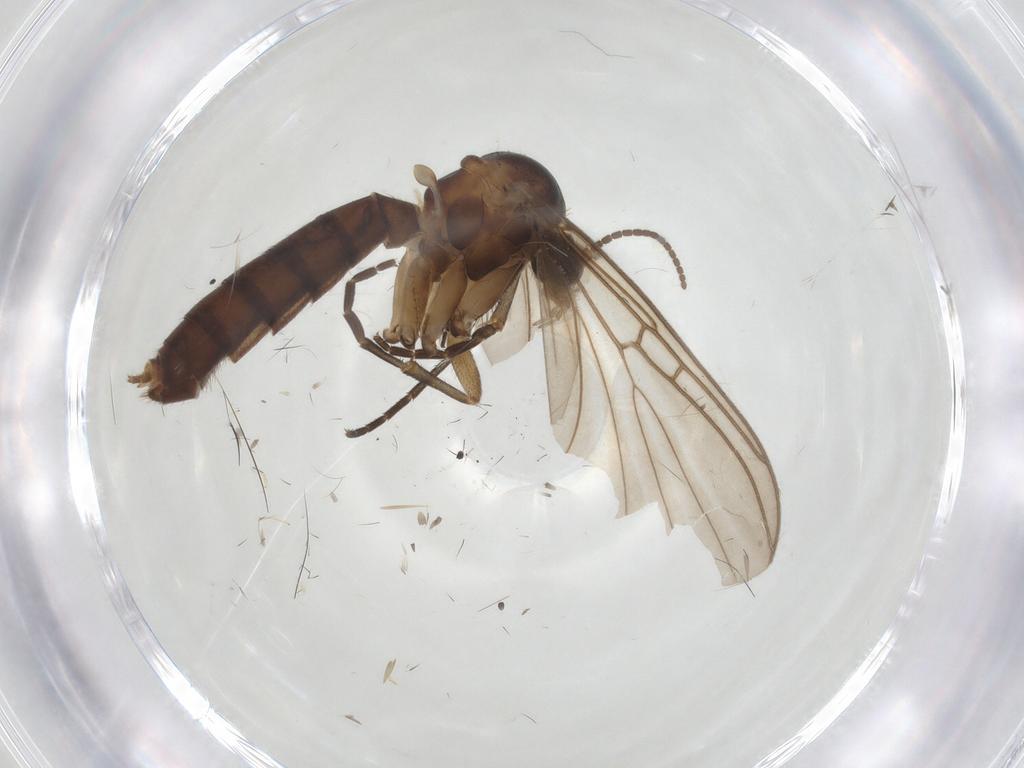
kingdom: Animalia
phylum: Arthropoda
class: Insecta
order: Diptera
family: Mycetophilidae
